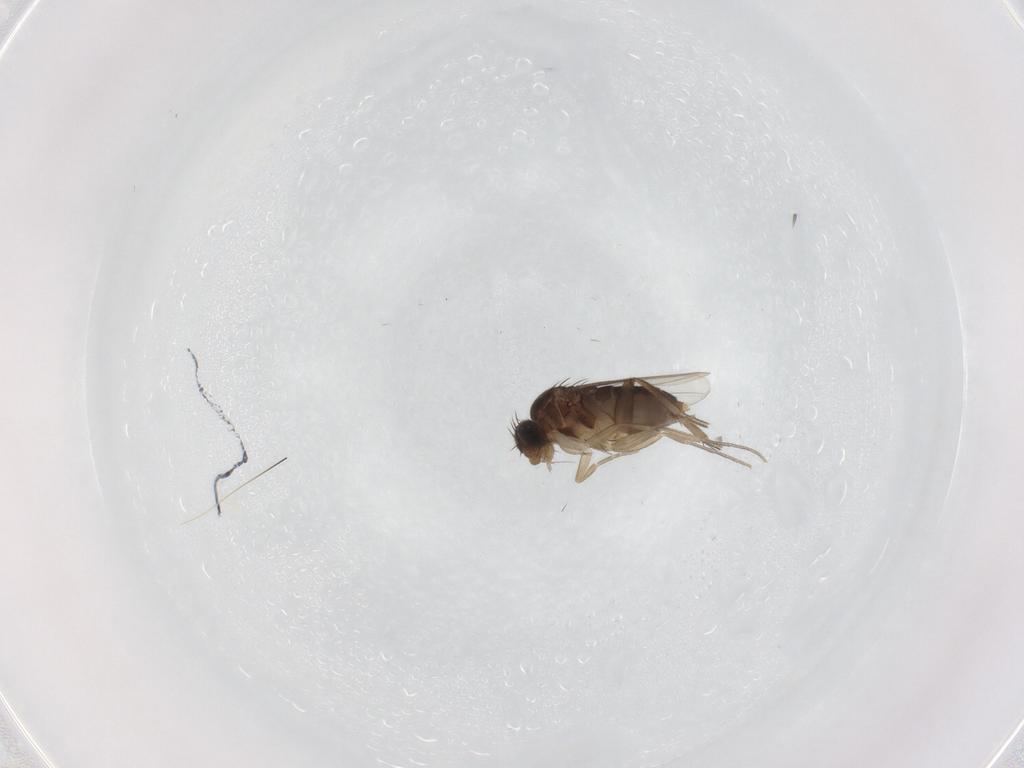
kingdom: Animalia
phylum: Arthropoda
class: Insecta
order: Diptera
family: Phoridae
